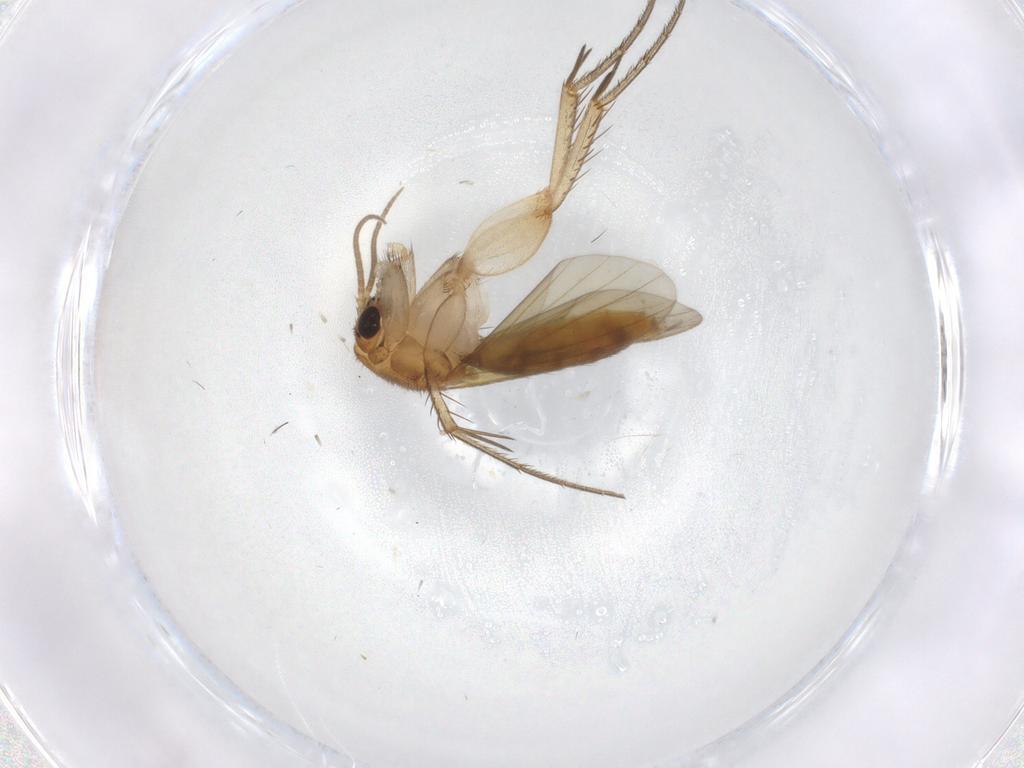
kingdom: Animalia
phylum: Arthropoda
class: Insecta
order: Diptera
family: Mycetophilidae
